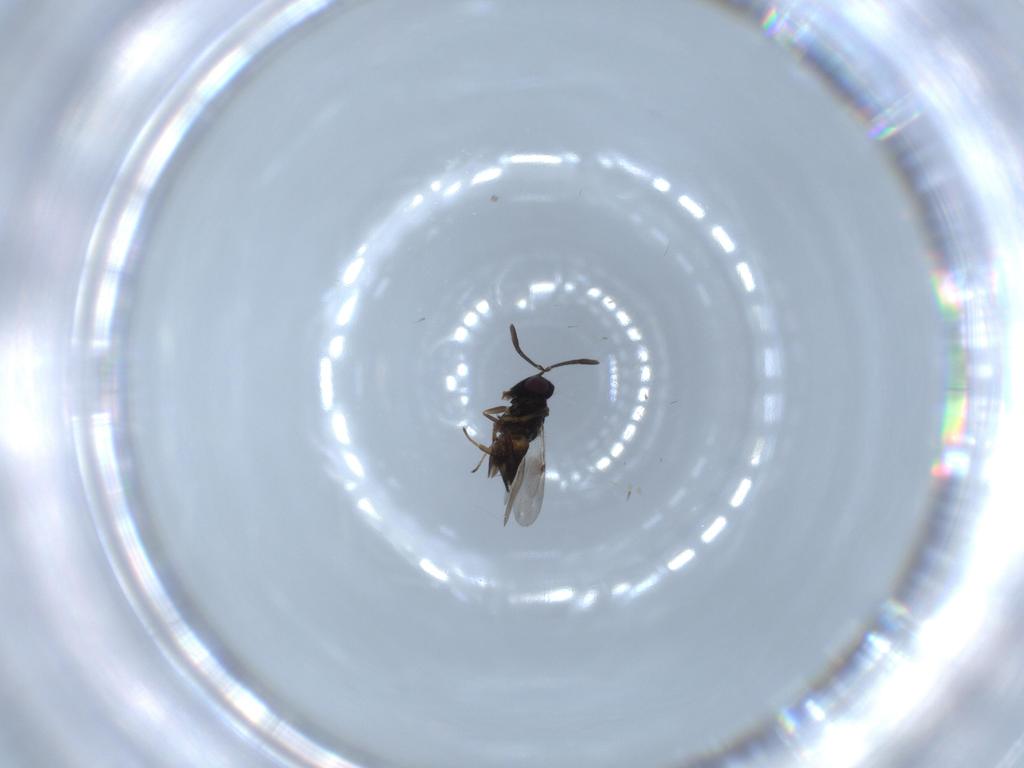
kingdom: Animalia
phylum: Arthropoda
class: Insecta
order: Hymenoptera
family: Encyrtidae
